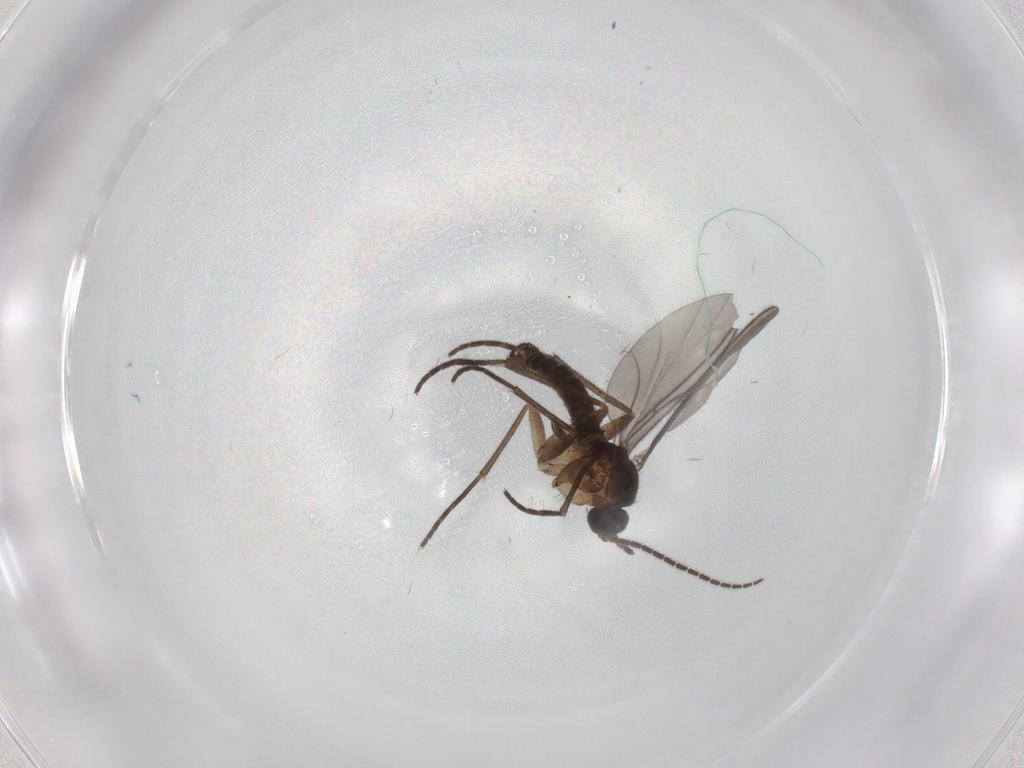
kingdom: Animalia
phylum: Arthropoda
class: Insecta
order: Diptera
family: Sciaridae
